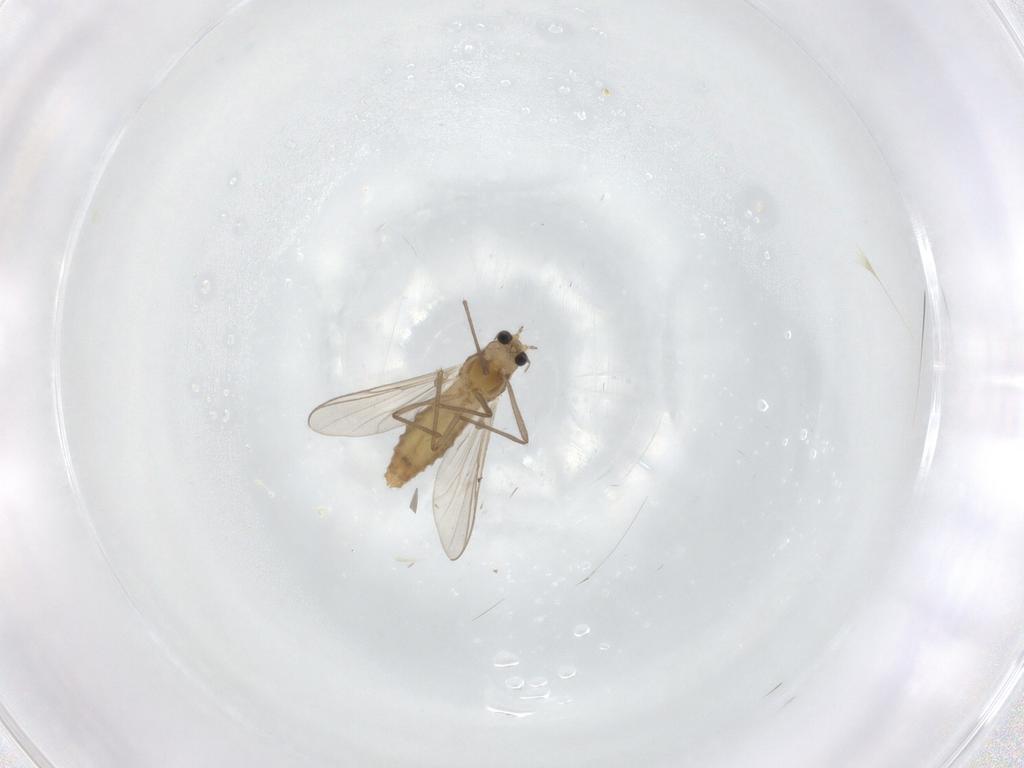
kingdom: Animalia
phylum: Arthropoda
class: Insecta
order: Diptera
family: Chironomidae
